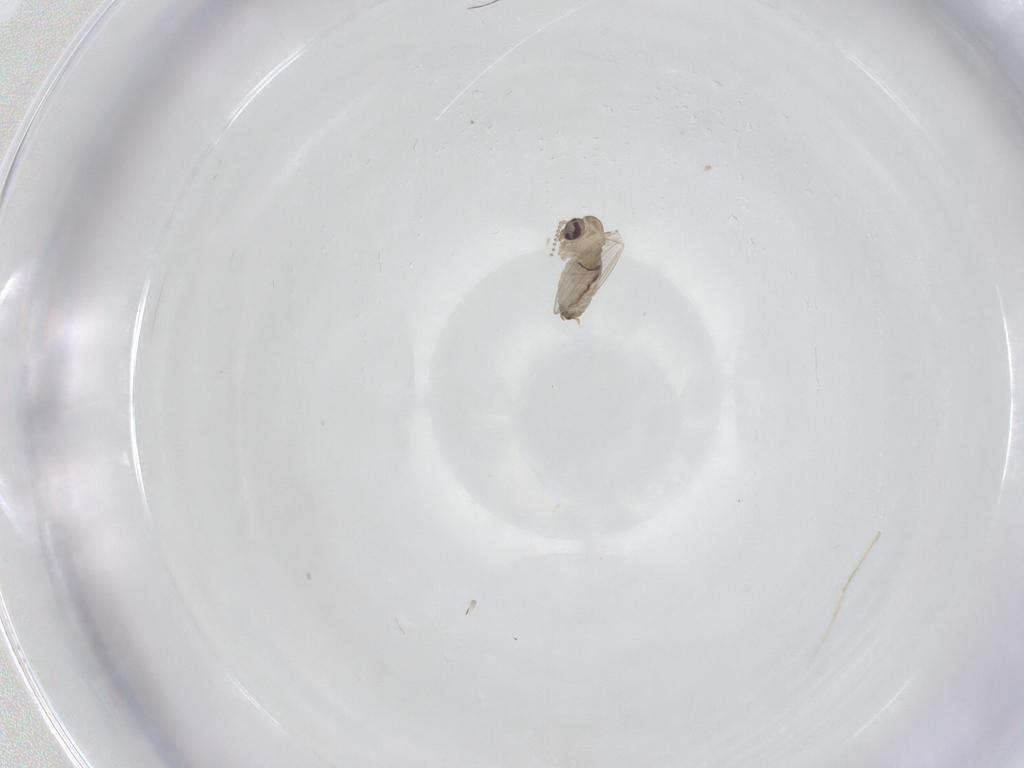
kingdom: Animalia
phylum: Arthropoda
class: Insecta
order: Diptera
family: Psychodidae
